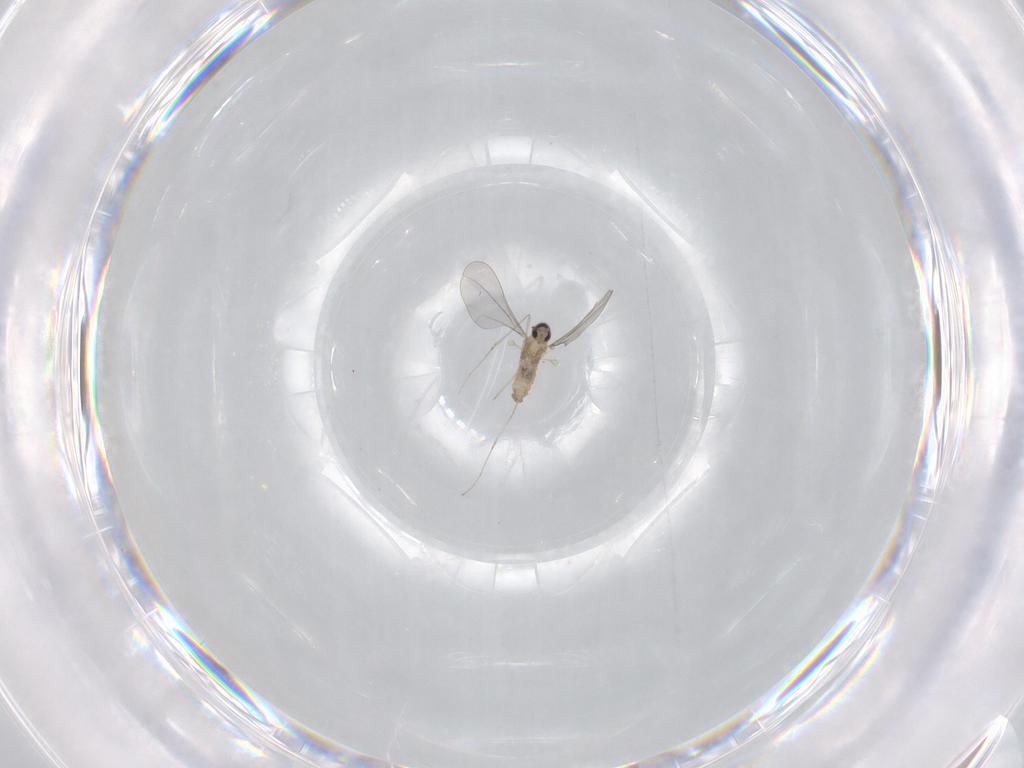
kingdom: Animalia
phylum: Arthropoda
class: Insecta
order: Diptera
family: Cecidomyiidae
